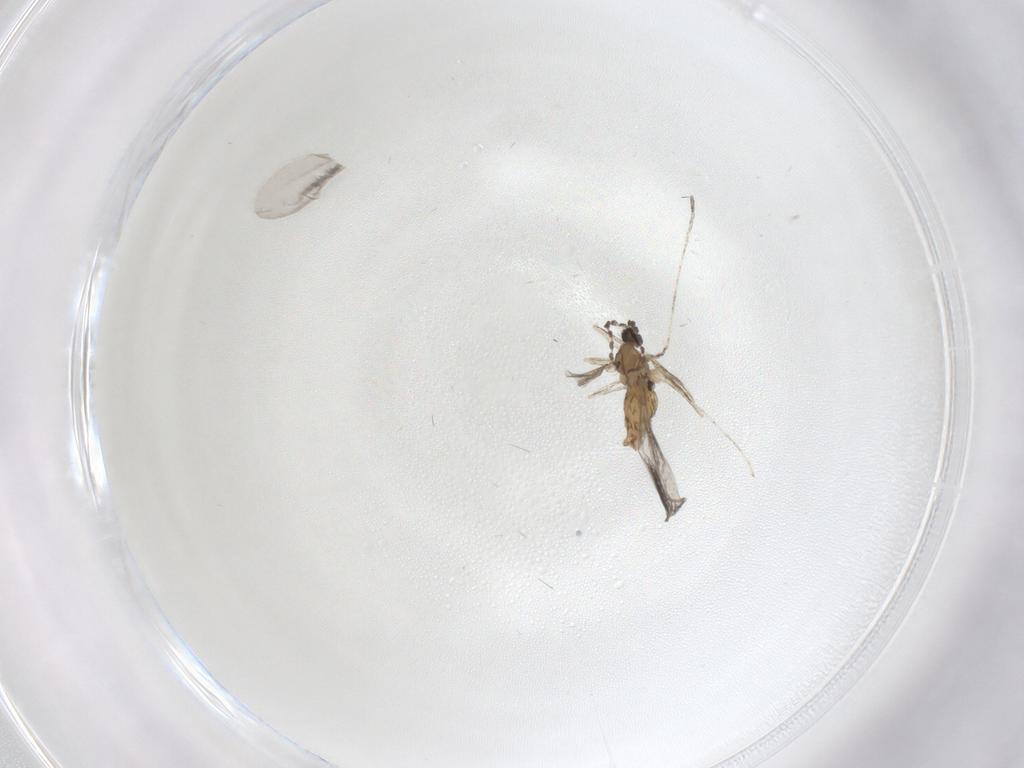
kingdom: Animalia
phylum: Arthropoda
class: Insecta
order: Diptera
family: Cecidomyiidae
